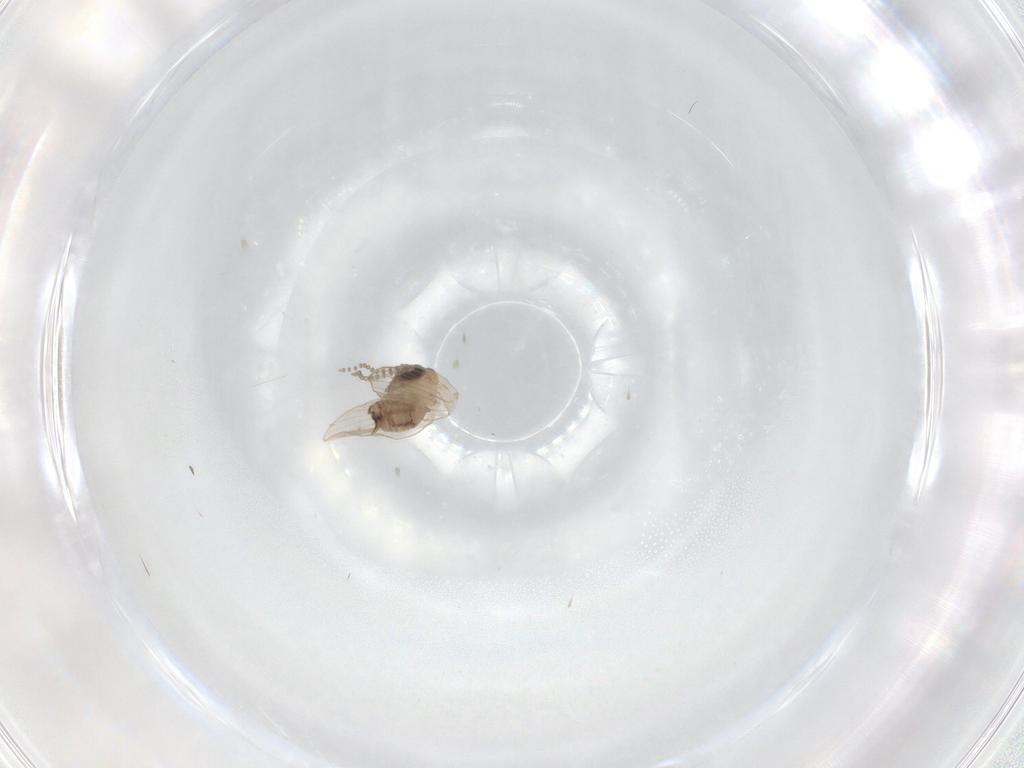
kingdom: Animalia
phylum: Arthropoda
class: Insecta
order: Diptera
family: Psychodidae
